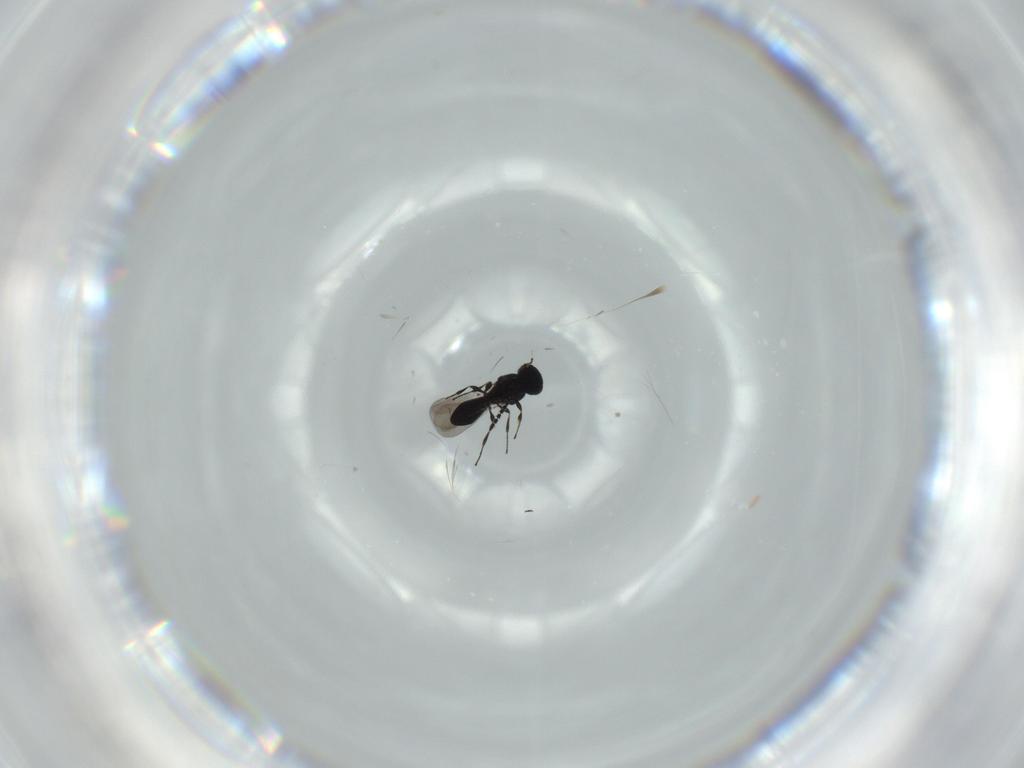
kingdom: Animalia
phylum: Arthropoda
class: Insecta
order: Hymenoptera
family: Platygastridae
